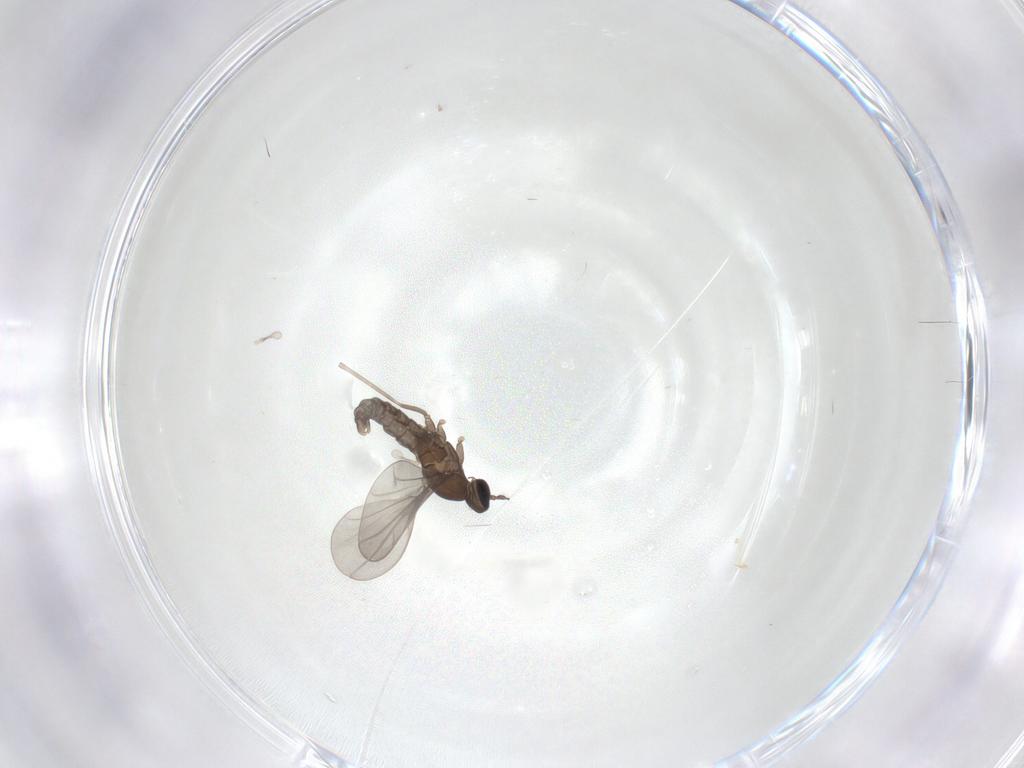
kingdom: Animalia
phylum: Arthropoda
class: Insecta
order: Diptera
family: Cecidomyiidae
